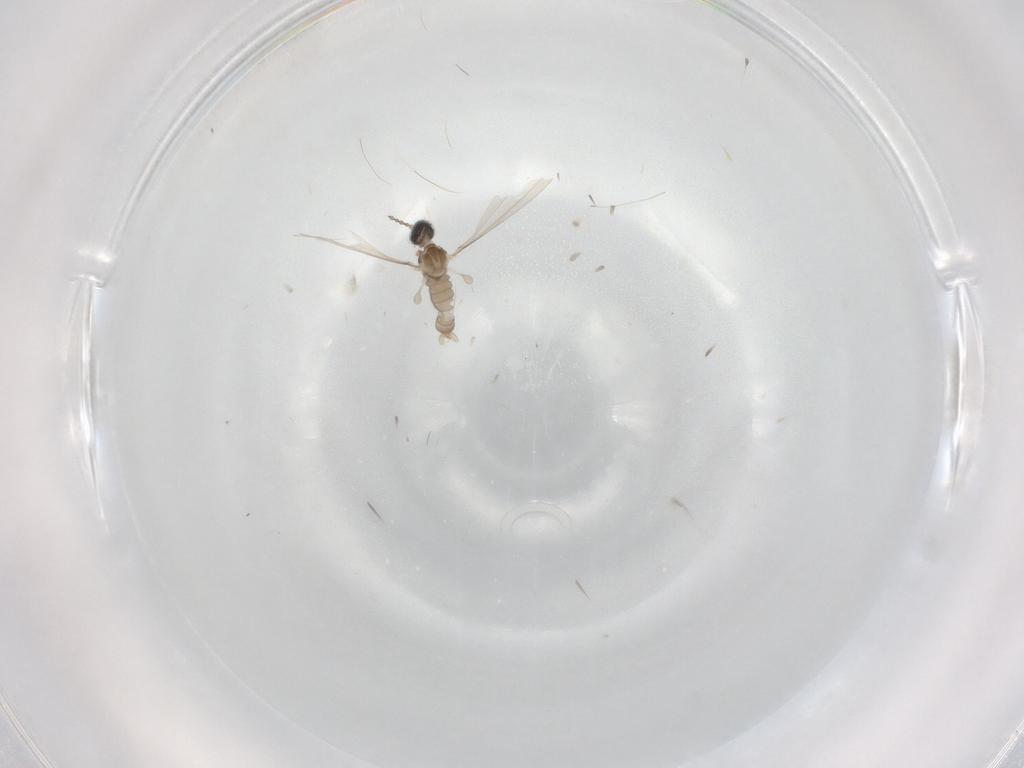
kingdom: Animalia
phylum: Arthropoda
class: Insecta
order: Diptera
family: Cecidomyiidae
